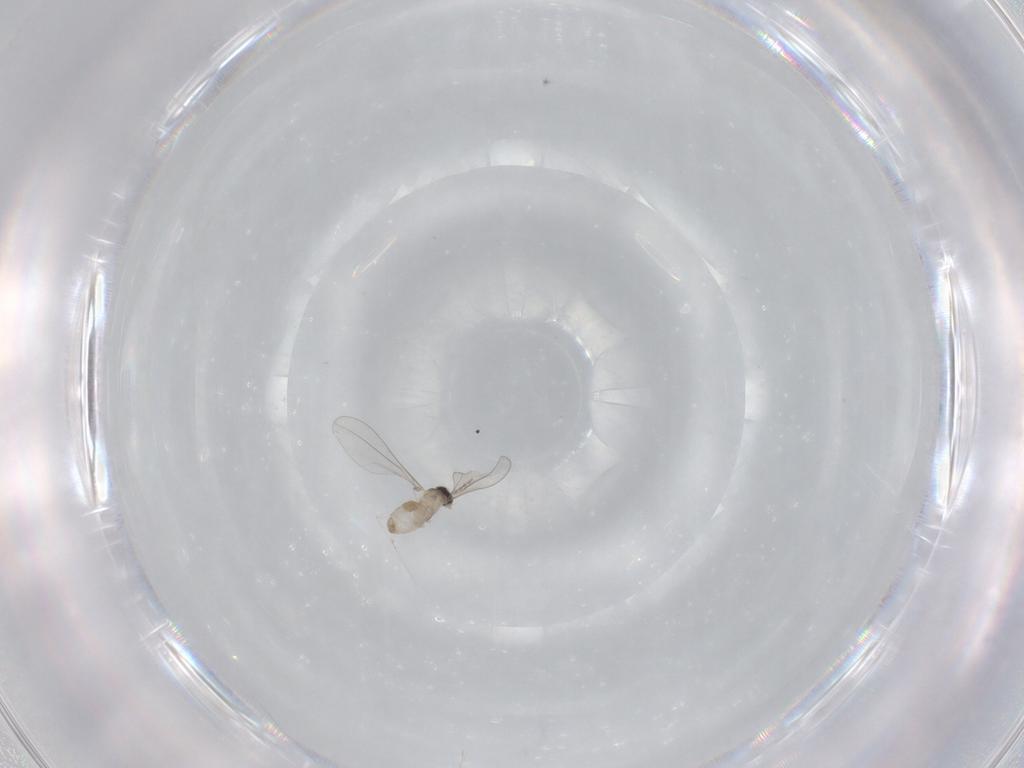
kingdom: Animalia
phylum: Arthropoda
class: Insecta
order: Diptera
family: Cecidomyiidae
